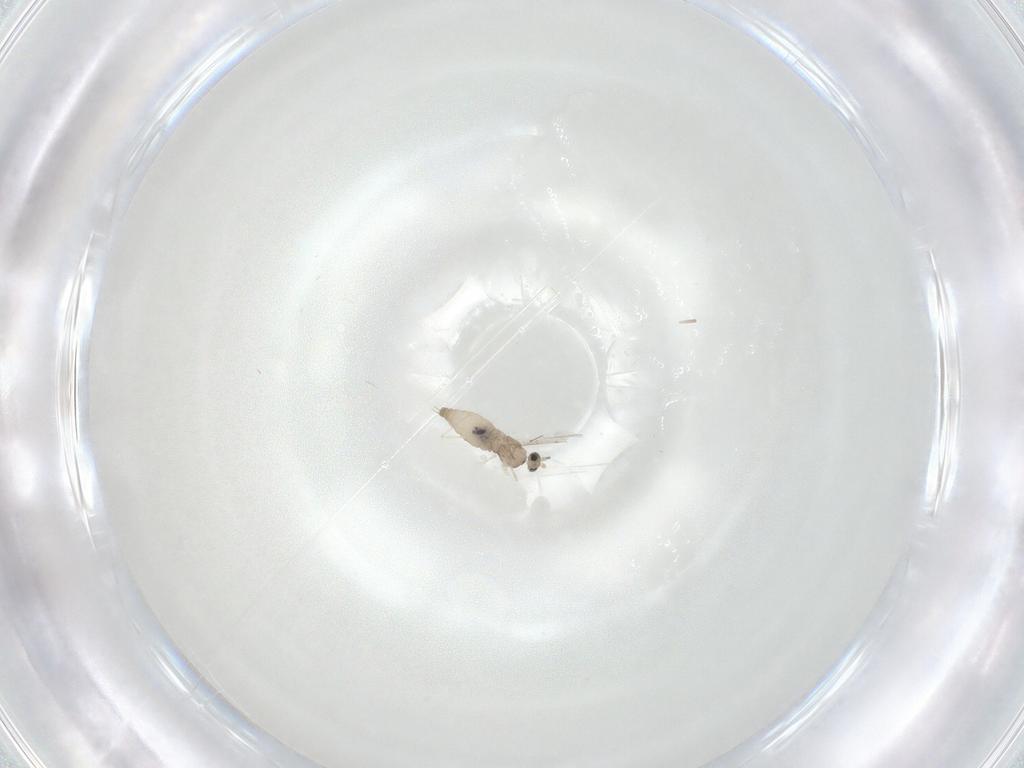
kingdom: Animalia
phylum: Arthropoda
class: Insecta
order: Diptera
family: Cecidomyiidae
